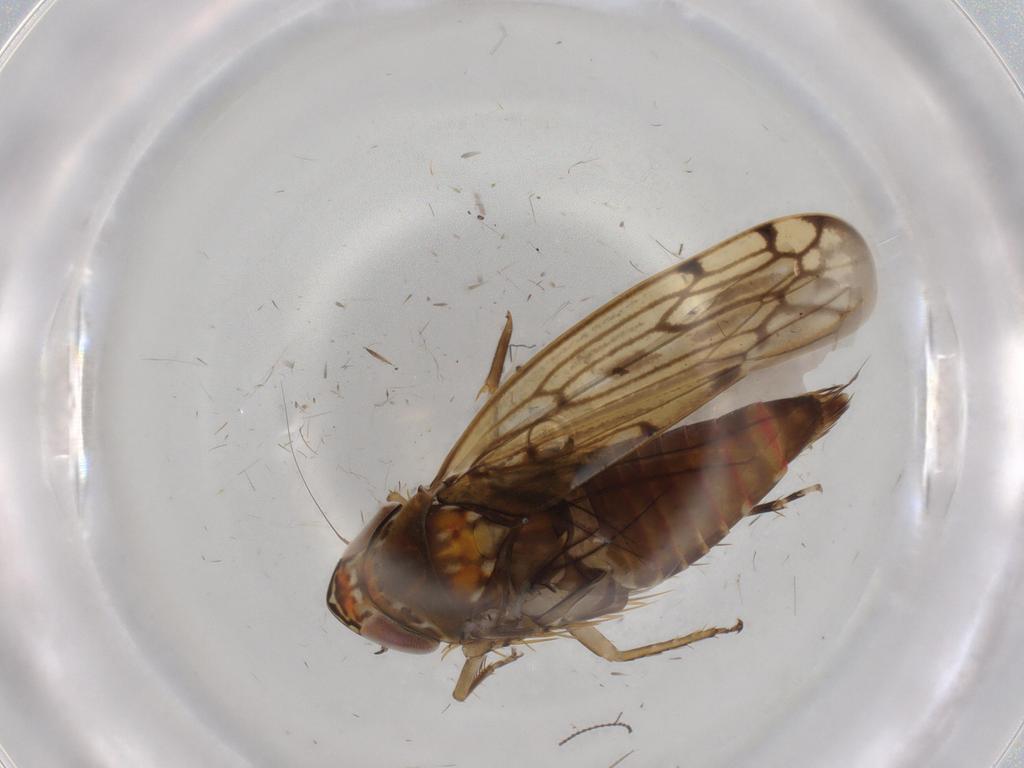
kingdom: Animalia
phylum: Arthropoda
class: Insecta
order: Hemiptera
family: Cicadellidae
